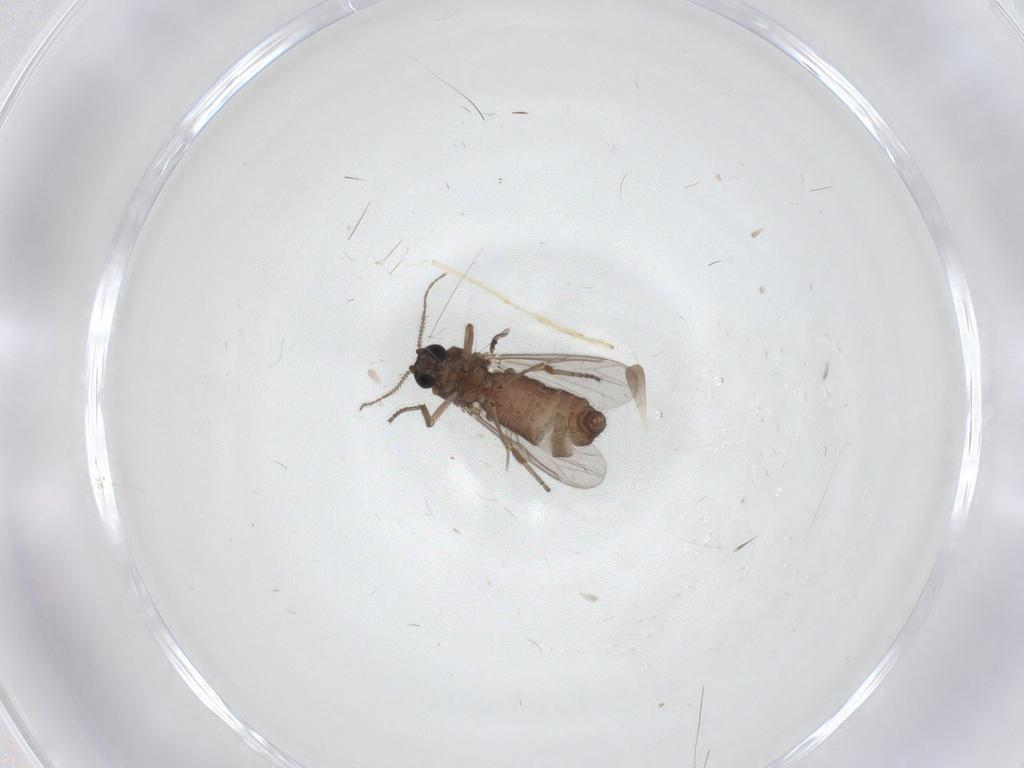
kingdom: Animalia
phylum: Arthropoda
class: Insecta
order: Diptera
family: Ceratopogonidae
